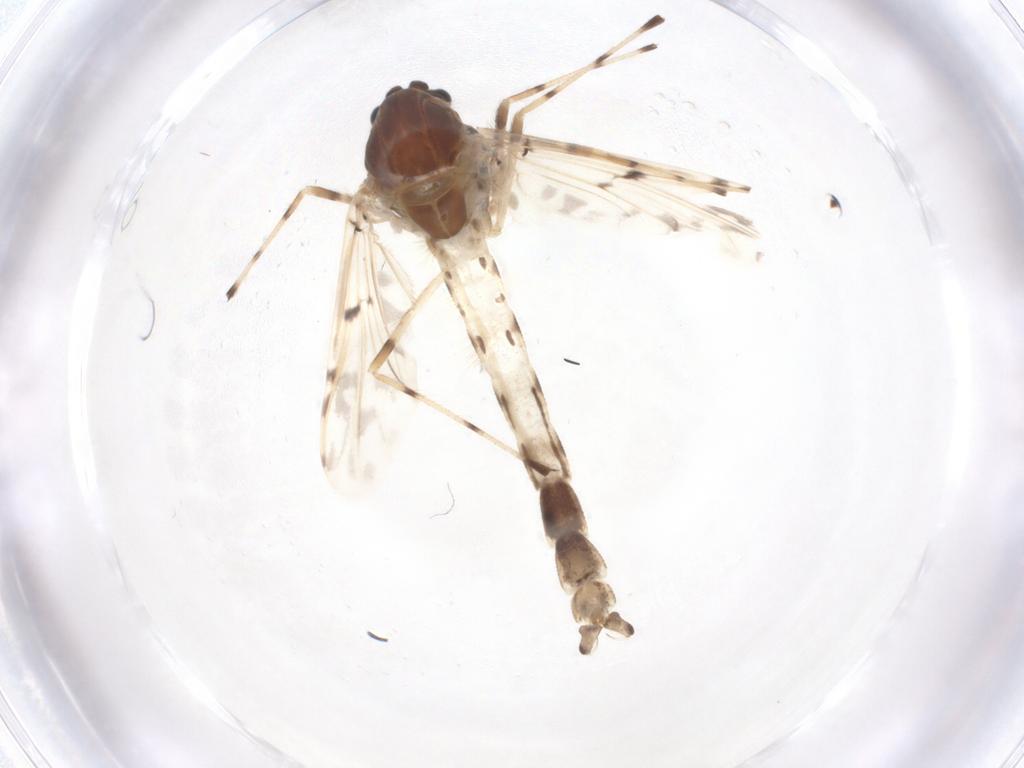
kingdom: Animalia
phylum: Arthropoda
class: Insecta
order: Diptera
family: Chironomidae
